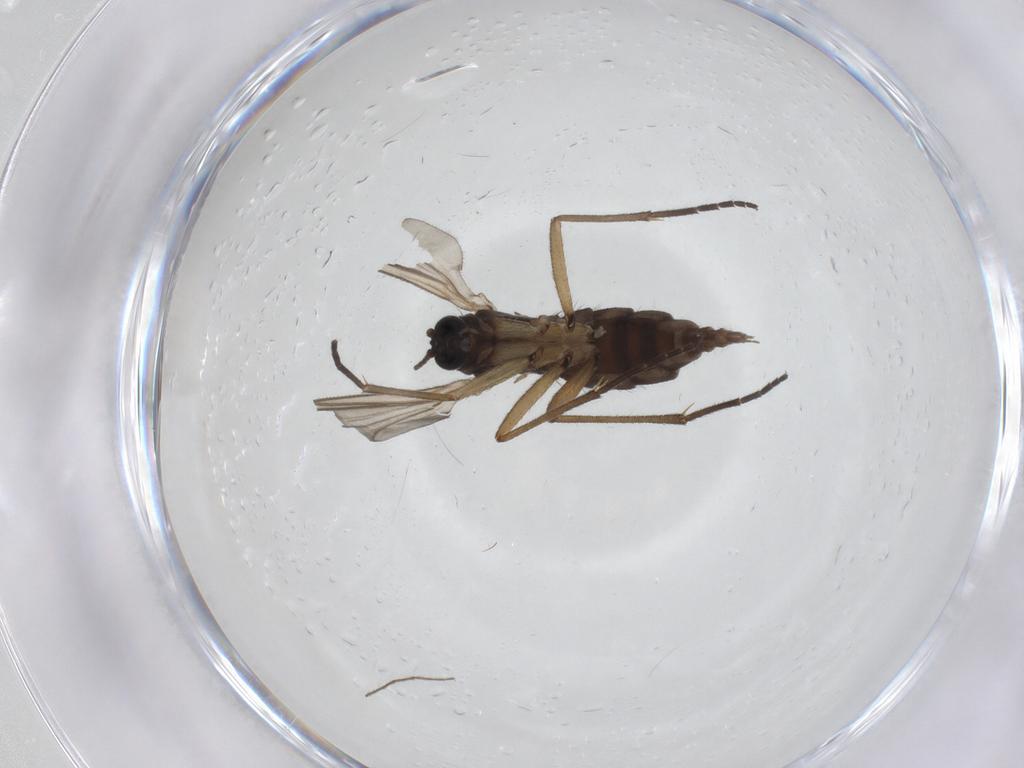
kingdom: Animalia
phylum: Arthropoda
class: Insecta
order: Diptera
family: Sciaridae
